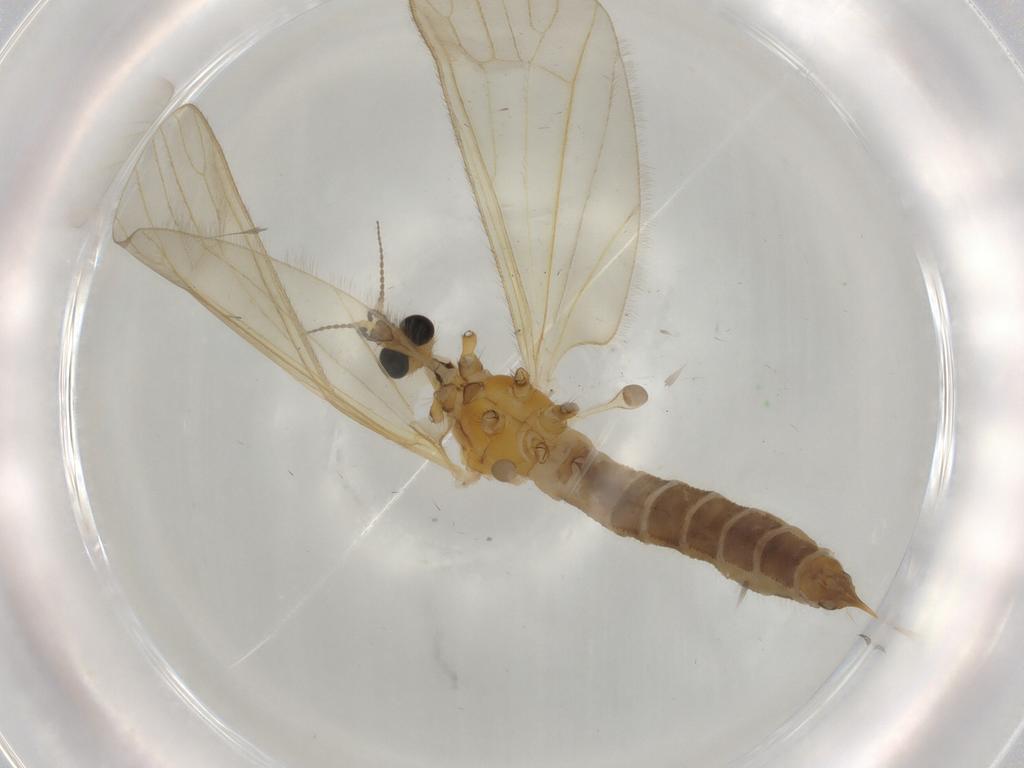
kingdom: Animalia
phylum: Arthropoda
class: Insecta
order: Diptera
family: Limoniidae
